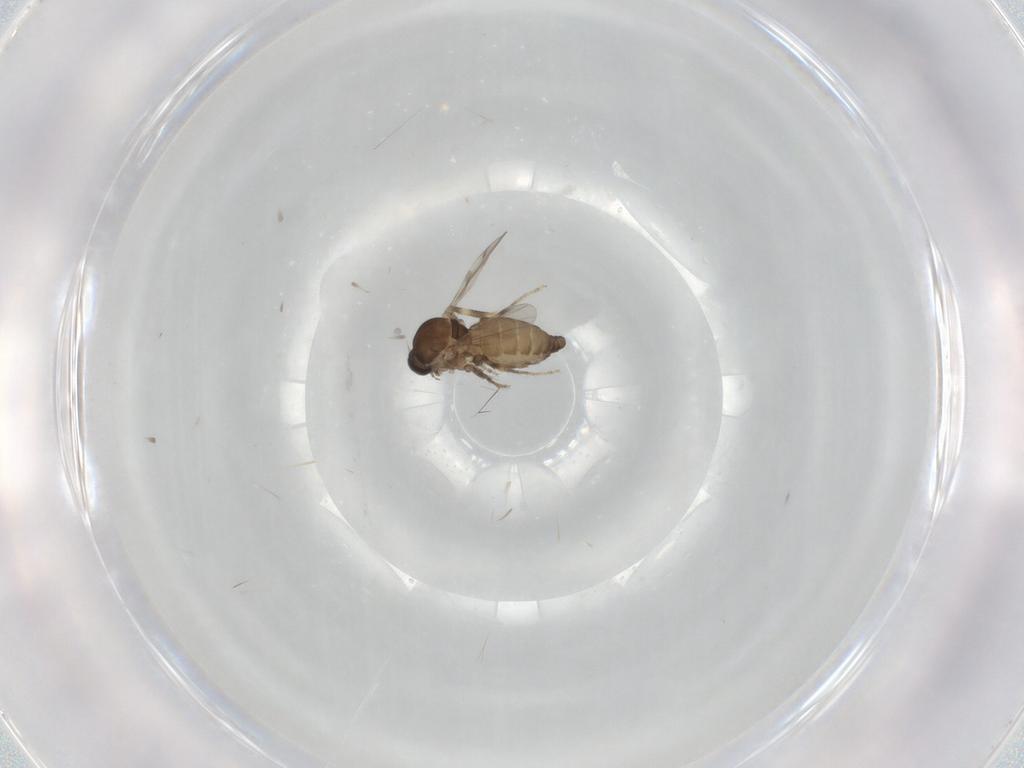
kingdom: Animalia
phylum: Arthropoda
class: Insecta
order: Diptera
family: Ceratopogonidae
